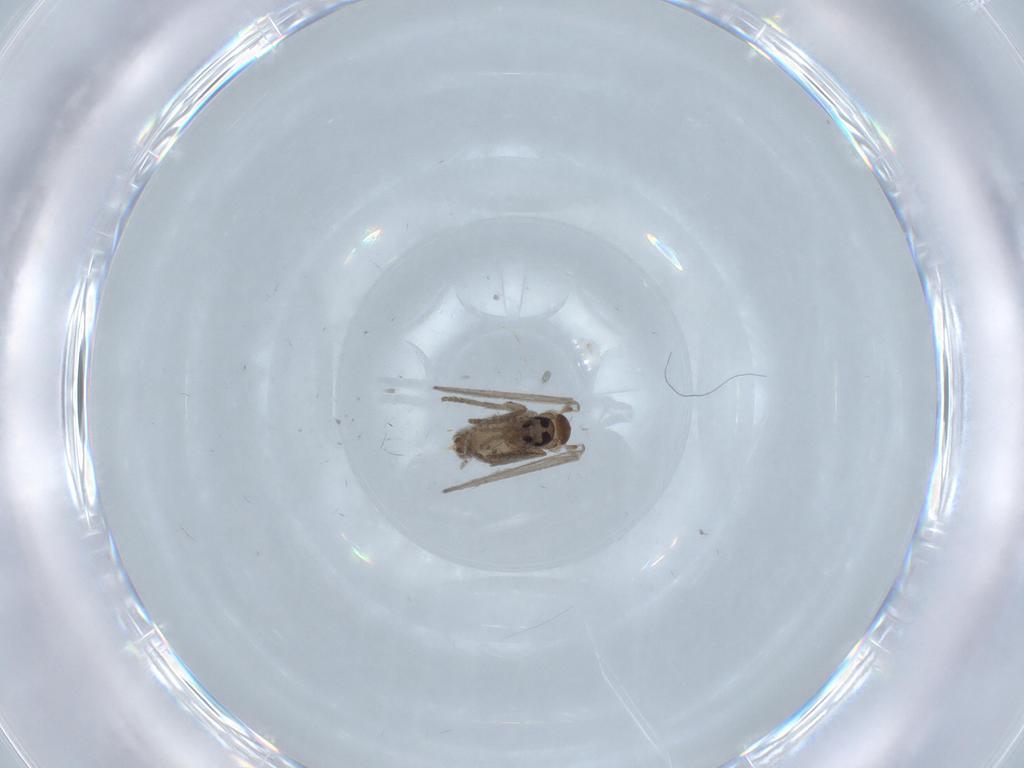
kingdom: Animalia
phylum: Arthropoda
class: Insecta
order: Diptera
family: Psychodidae
